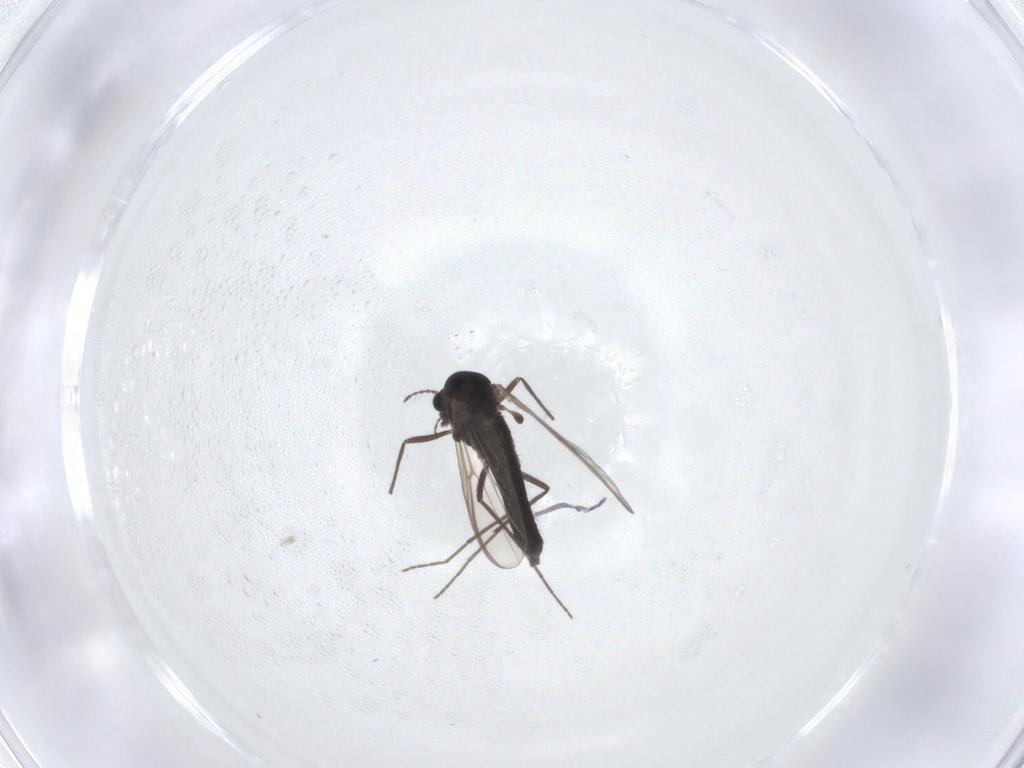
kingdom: Animalia
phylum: Arthropoda
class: Insecta
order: Diptera
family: Chironomidae
